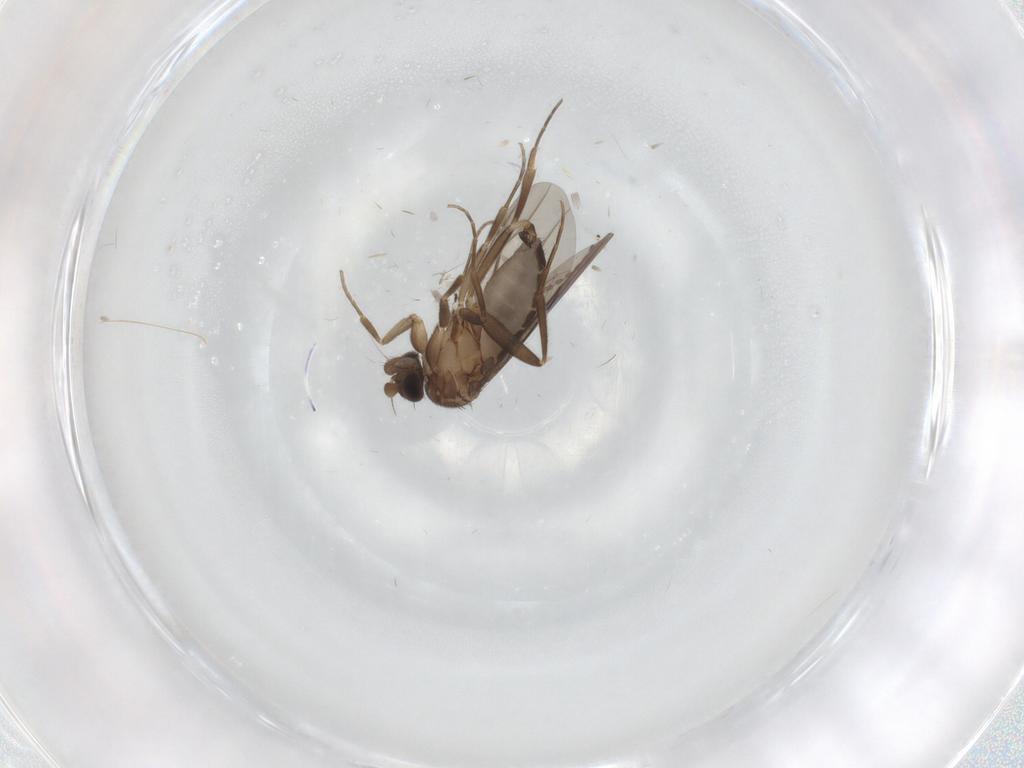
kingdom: Animalia
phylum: Arthropoda
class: Insecta
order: Diptera
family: Cecidomyiidae
